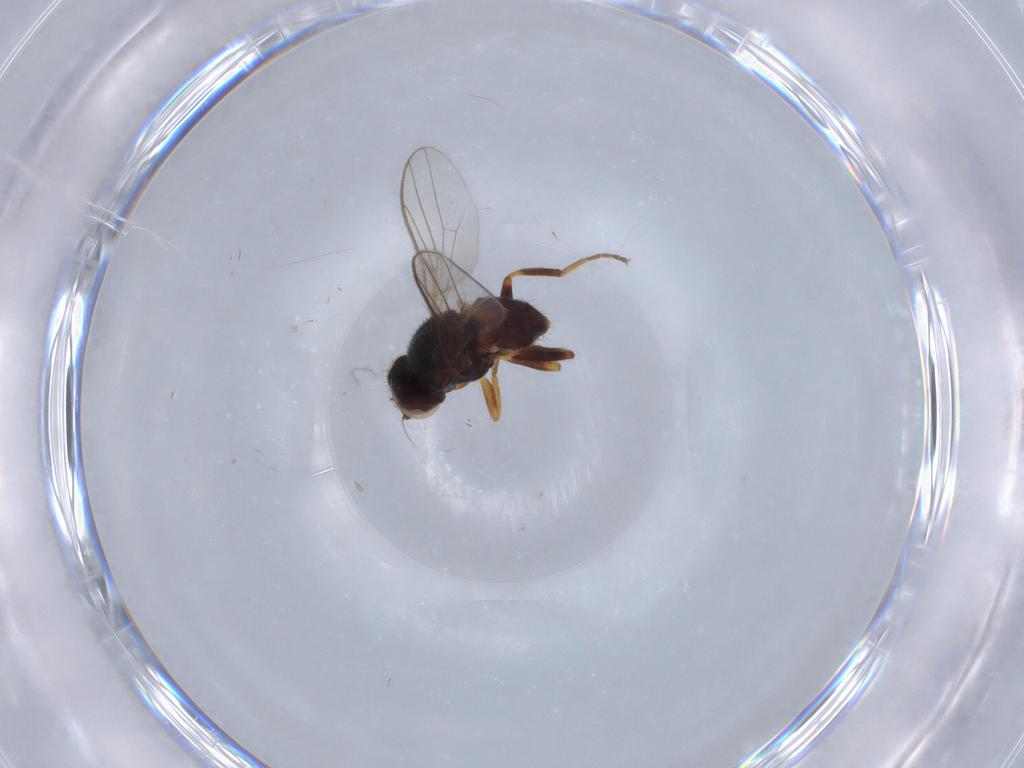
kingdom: Animalia
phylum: Arthropoda
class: Insecta
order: Diptera
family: Chloropidae
